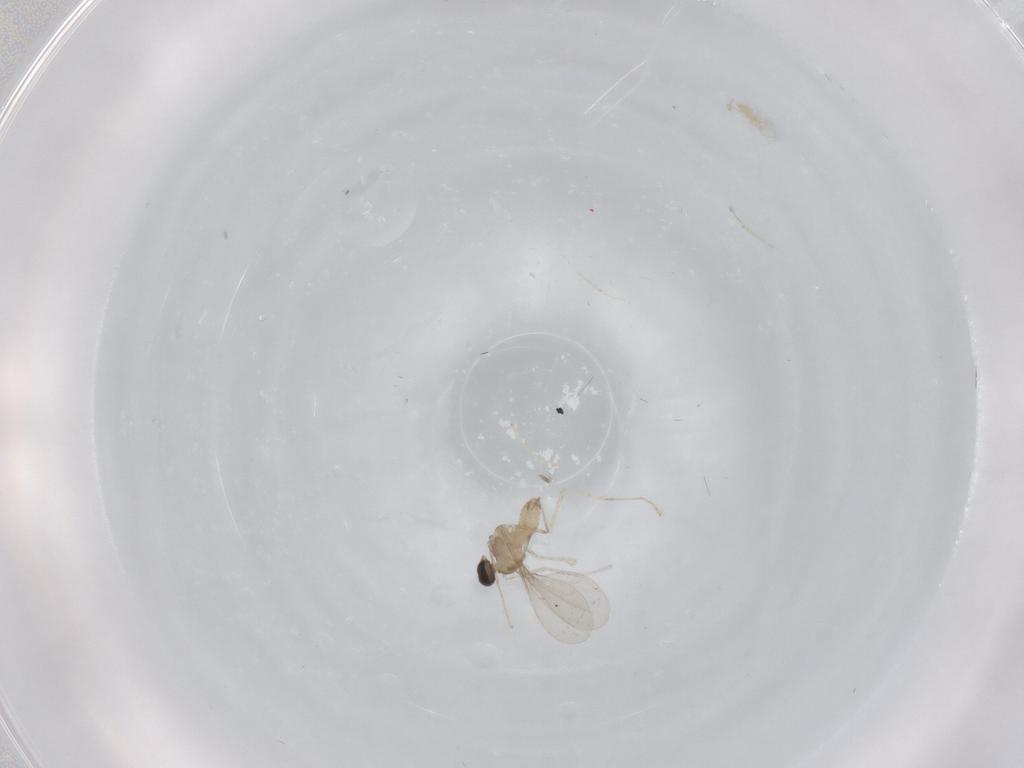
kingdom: Animalia
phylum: Arthropoda
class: Insecta
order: Diptera
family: Cecidomyiidae
